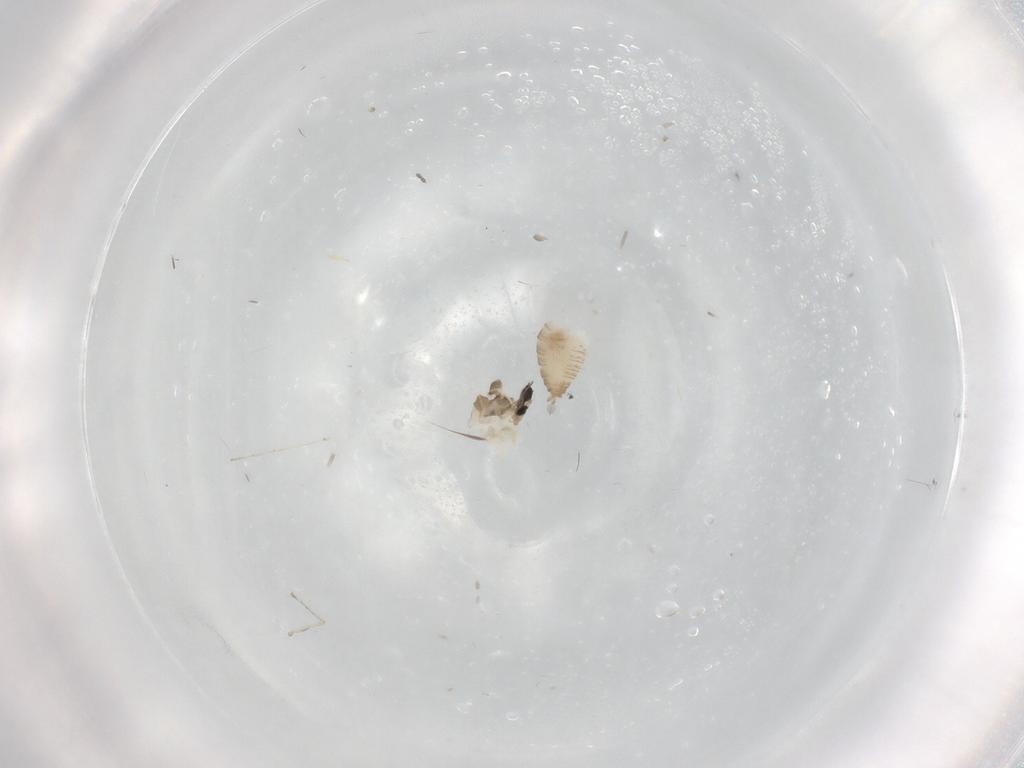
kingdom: Animalia
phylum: Arthropoda
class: Insecta
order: Diptera
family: Cecidomyiidae
